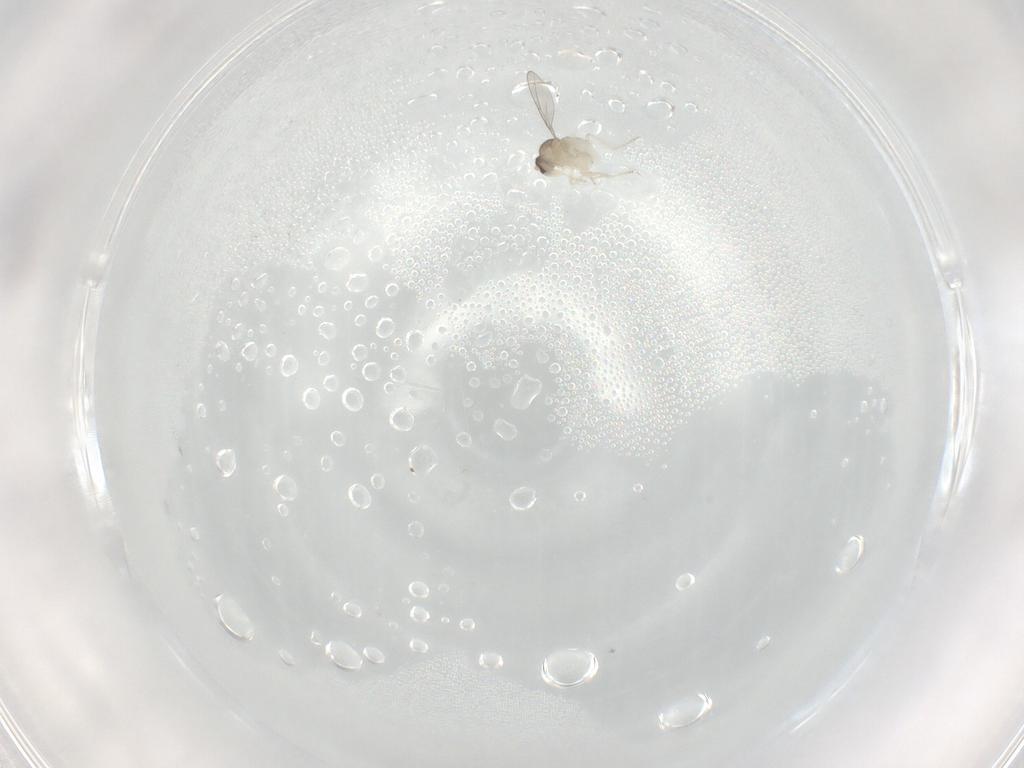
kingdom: Animalia
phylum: Arthropoda
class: Insecta
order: Diptera
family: Cecidomyiidae
